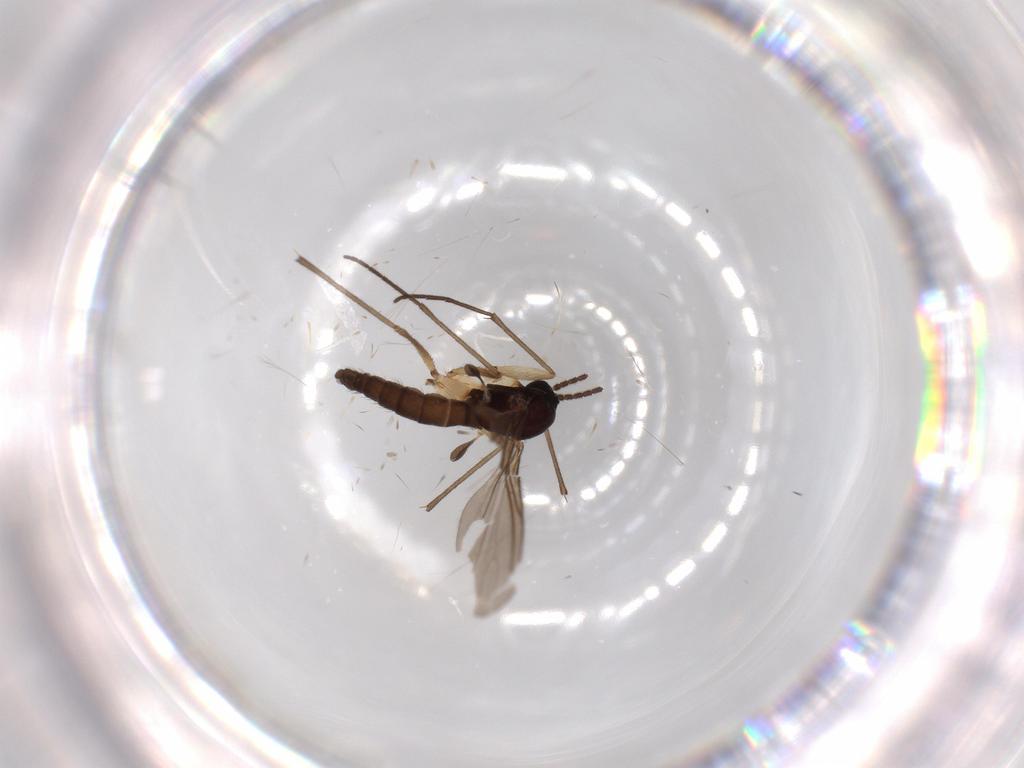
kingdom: Animalia
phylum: Arthropoda
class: Insecta
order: Diptera
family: Sciaridae
